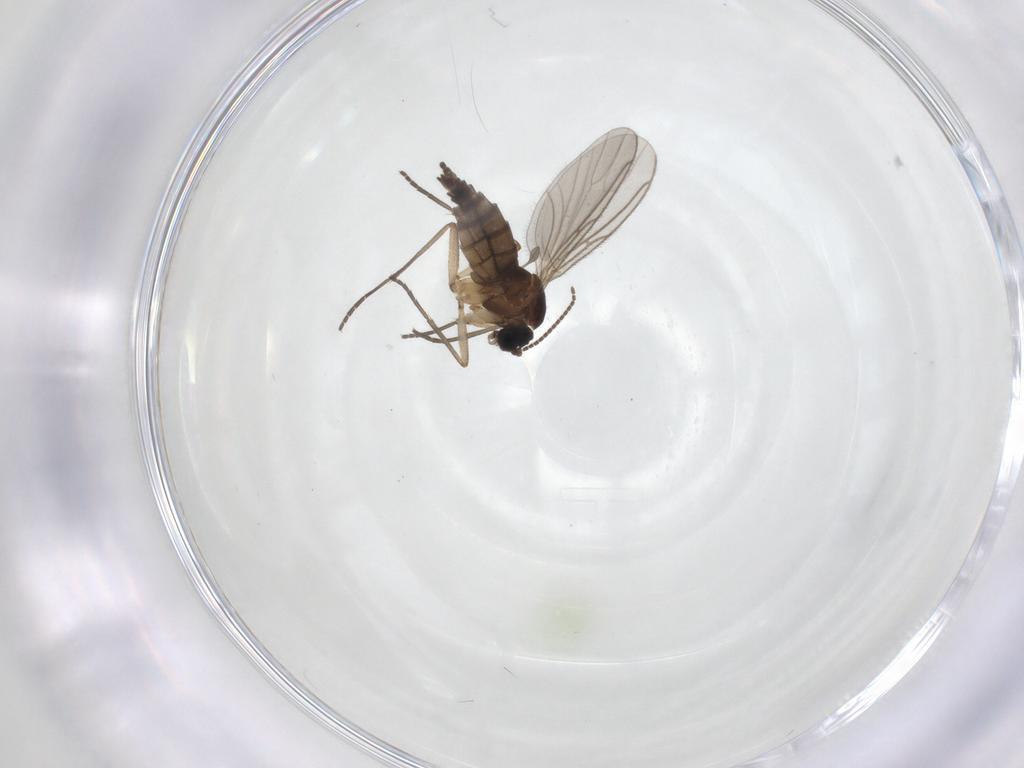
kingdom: Animalia
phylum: Arthropoda
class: Insecta
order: Diptera
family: Sciaridae
